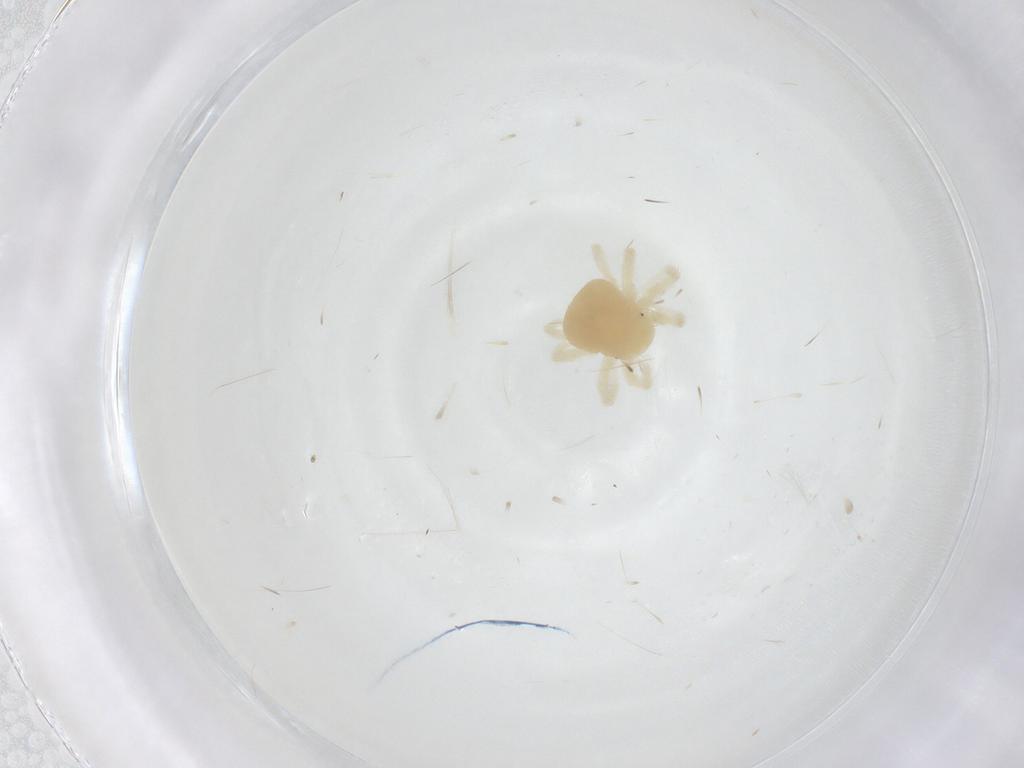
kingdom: Animalia
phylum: Arthropoda
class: Arachnida
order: Trombidiformes
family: Anystidae
